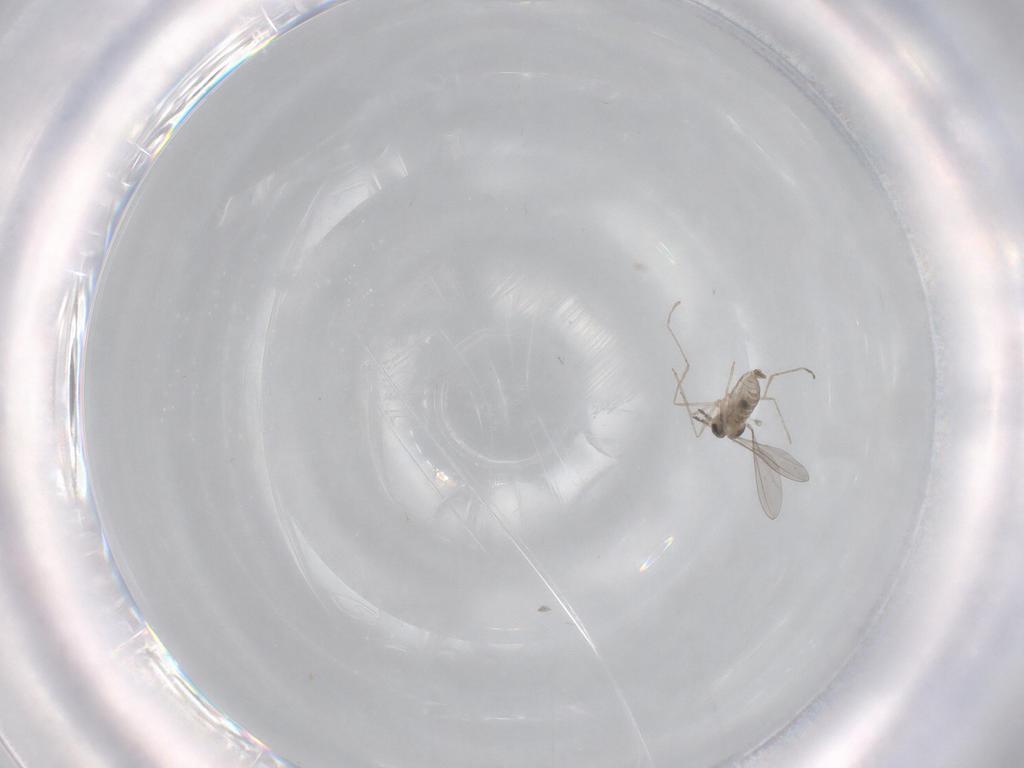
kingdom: Animalia
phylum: Arthropoda
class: Insecta
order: Diptera
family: Chironomidae
